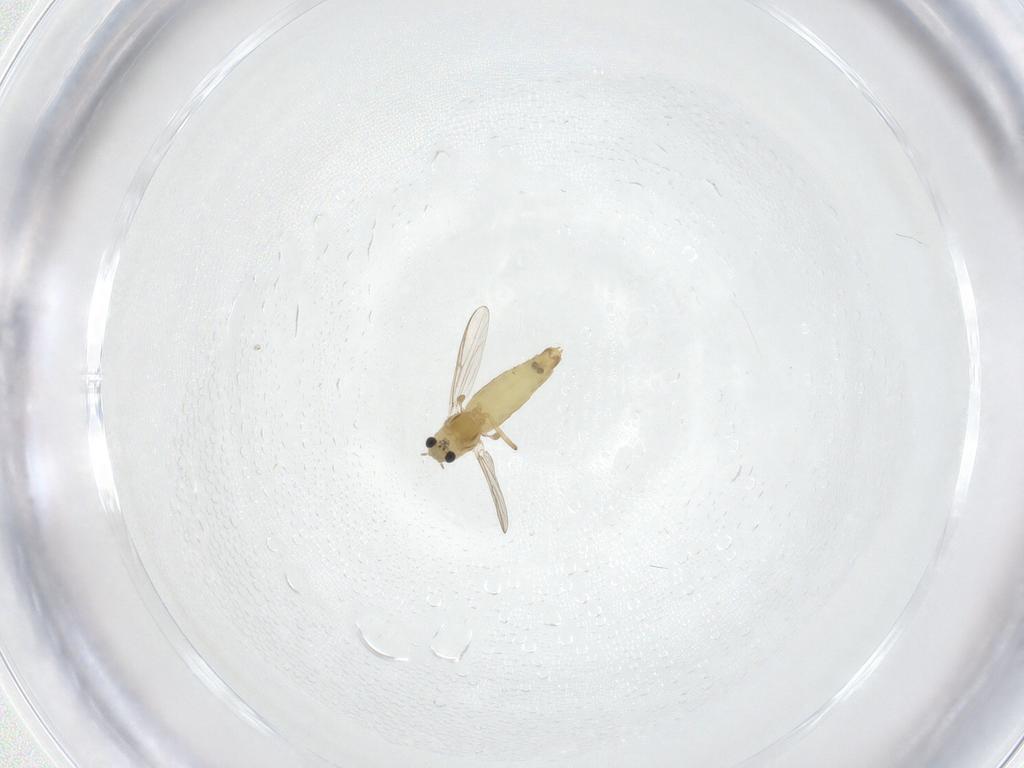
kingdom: Animalia
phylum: Arthropoda
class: Insecta
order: Diptera
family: Chironomidae
